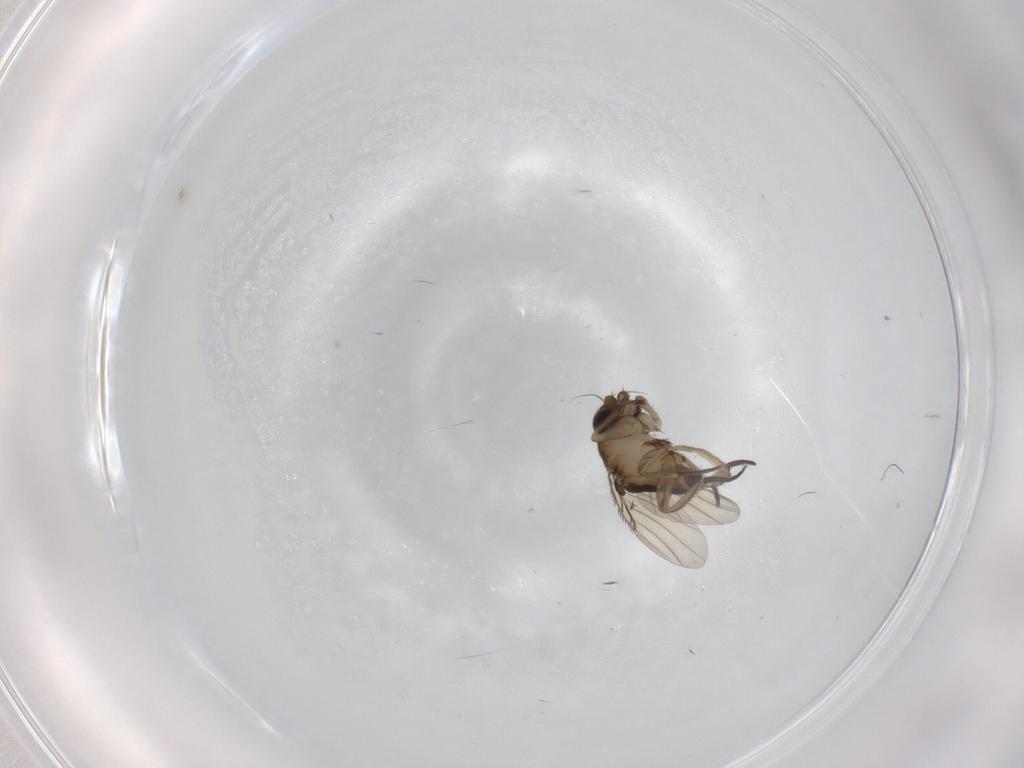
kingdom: Animalia
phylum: Arthropoda
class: Insecta
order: Diptera
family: Phoridae
